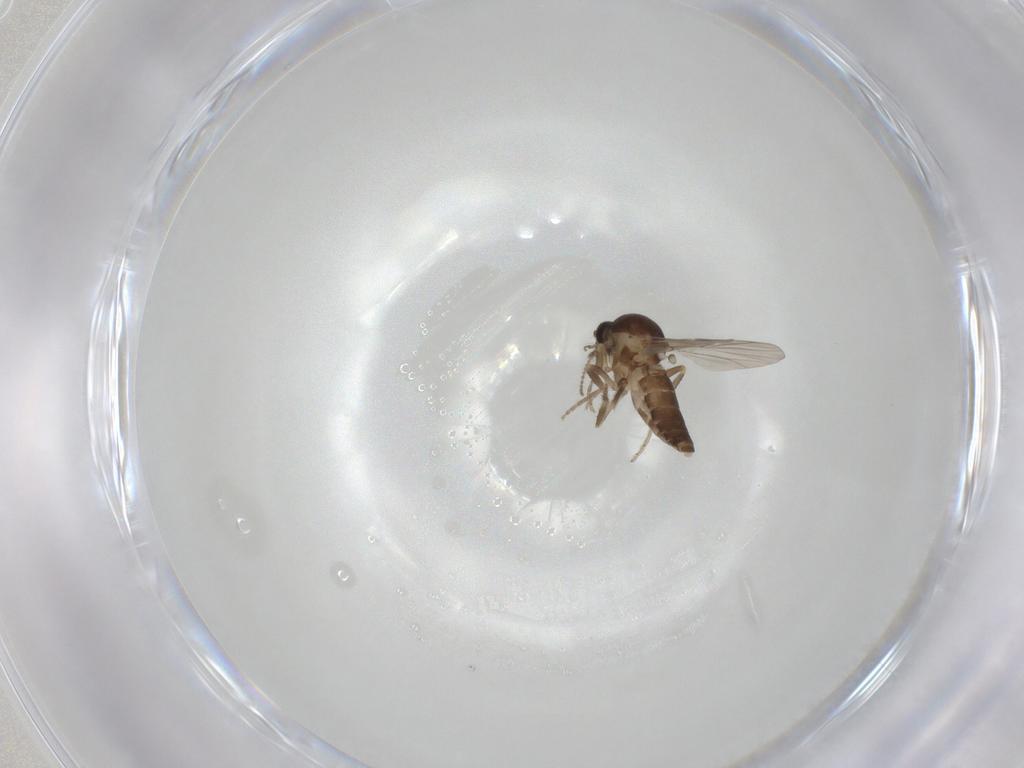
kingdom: Animalia
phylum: Arthropoda
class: Insecta
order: Diptera
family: Ceratopogonidae
